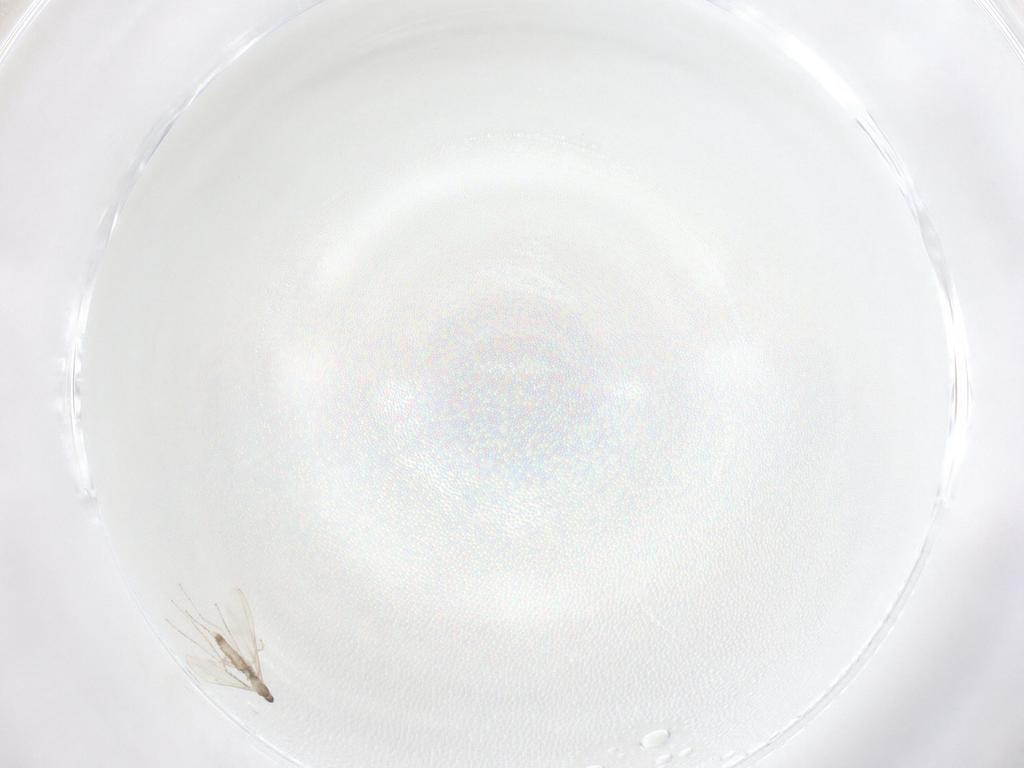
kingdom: Animalia
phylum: Arthropoda
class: Insecta
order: Diptera
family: Cecidomyiidae
